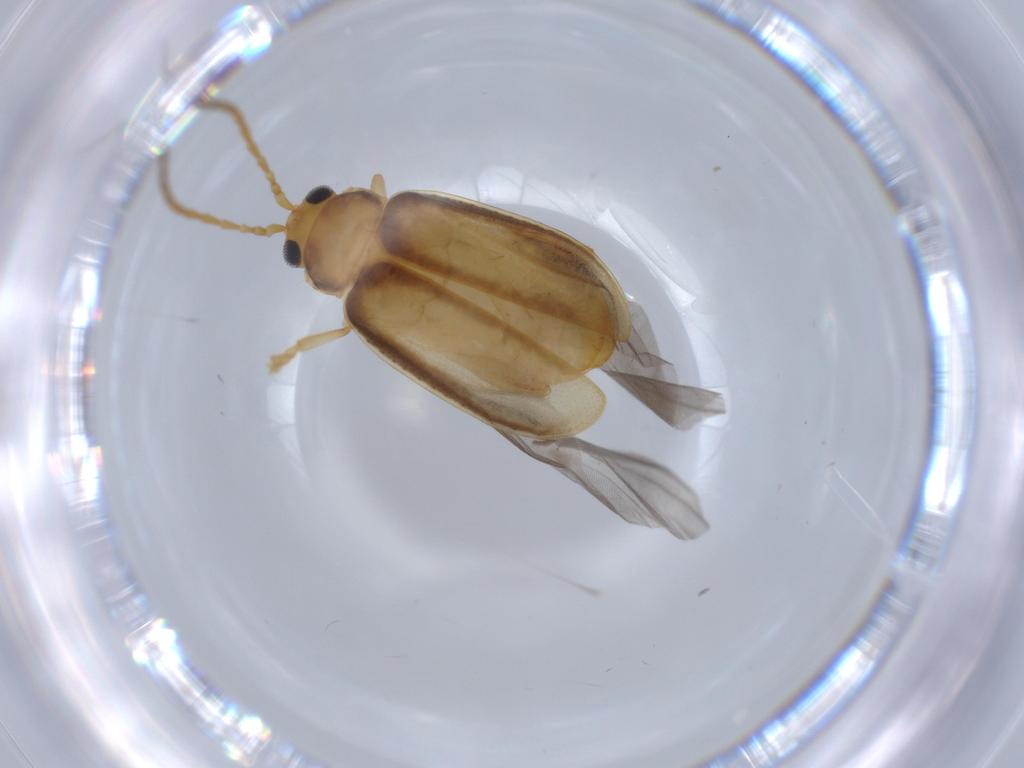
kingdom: Animalia
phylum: Arthropoda
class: Insecta
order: Coleoptera
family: Chrysomelidae
